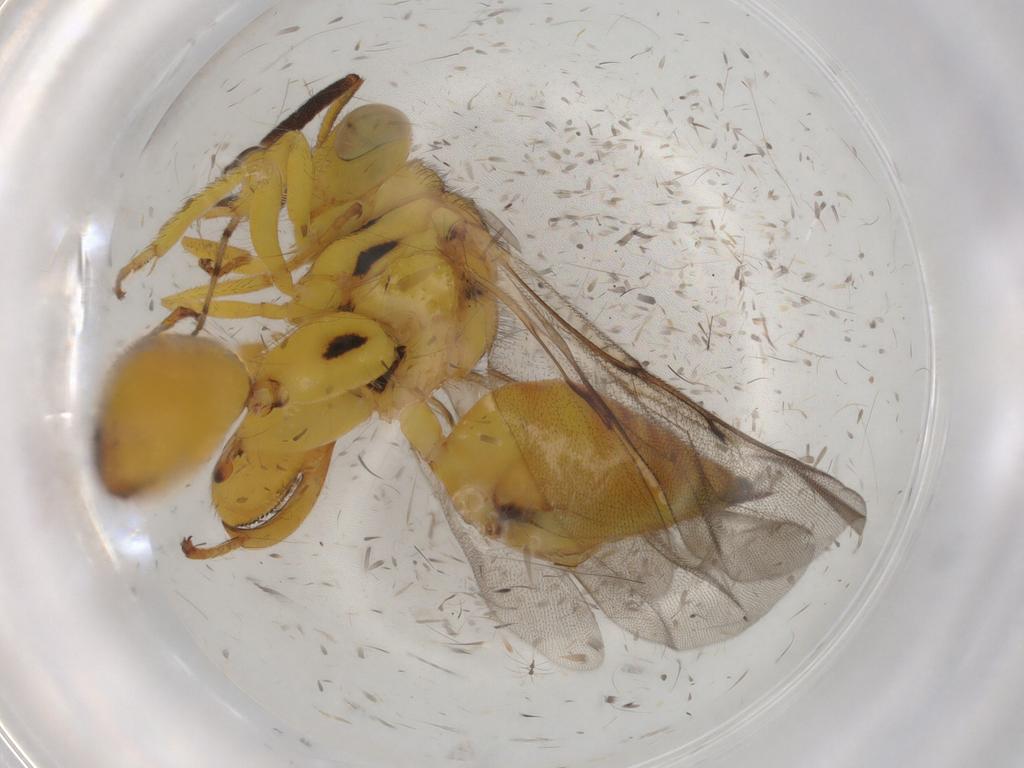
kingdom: Animalia
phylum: Arthropoda
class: Insecta
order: Hymenoptera
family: Chalcididae
